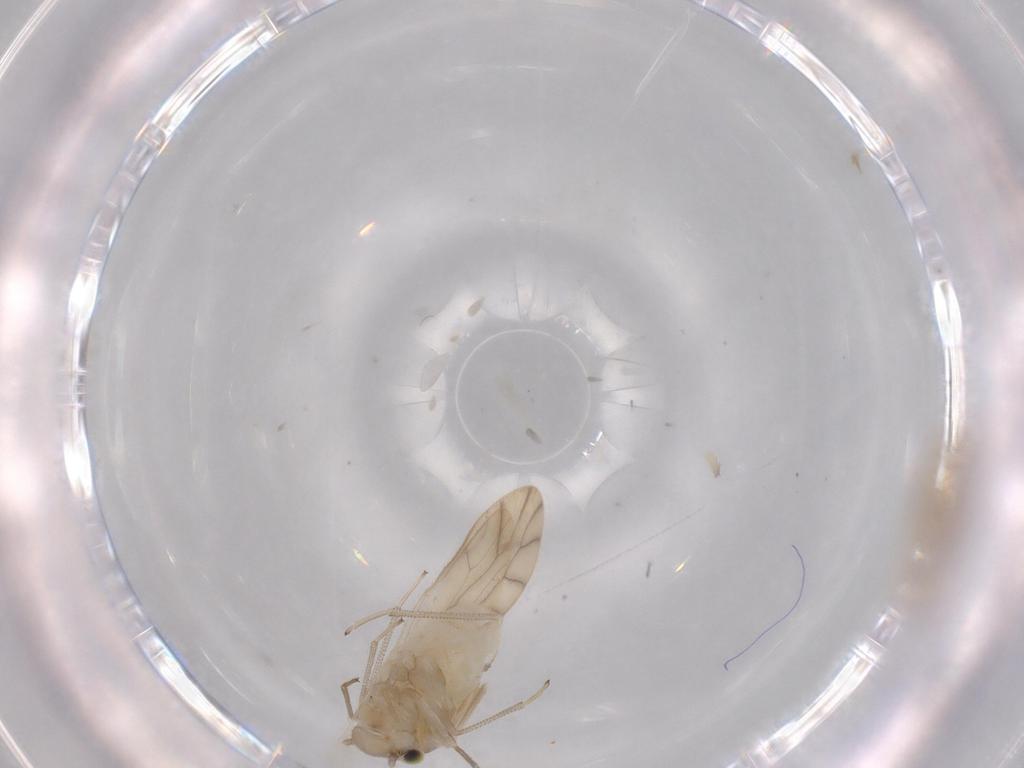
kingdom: Animalia
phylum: Arthropoda
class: Insecta
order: Psocodea
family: Caeciliusidae
